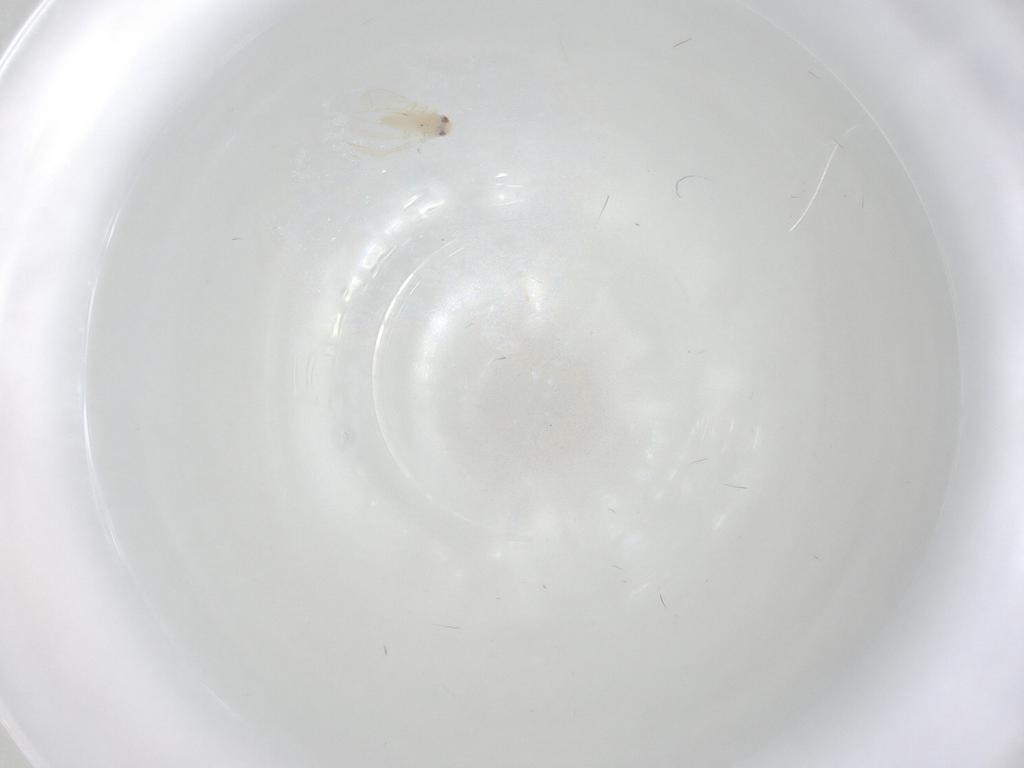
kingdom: Animalia
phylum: Arthropoda
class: Insecta
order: Hemiptera
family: Aleyrodidae
